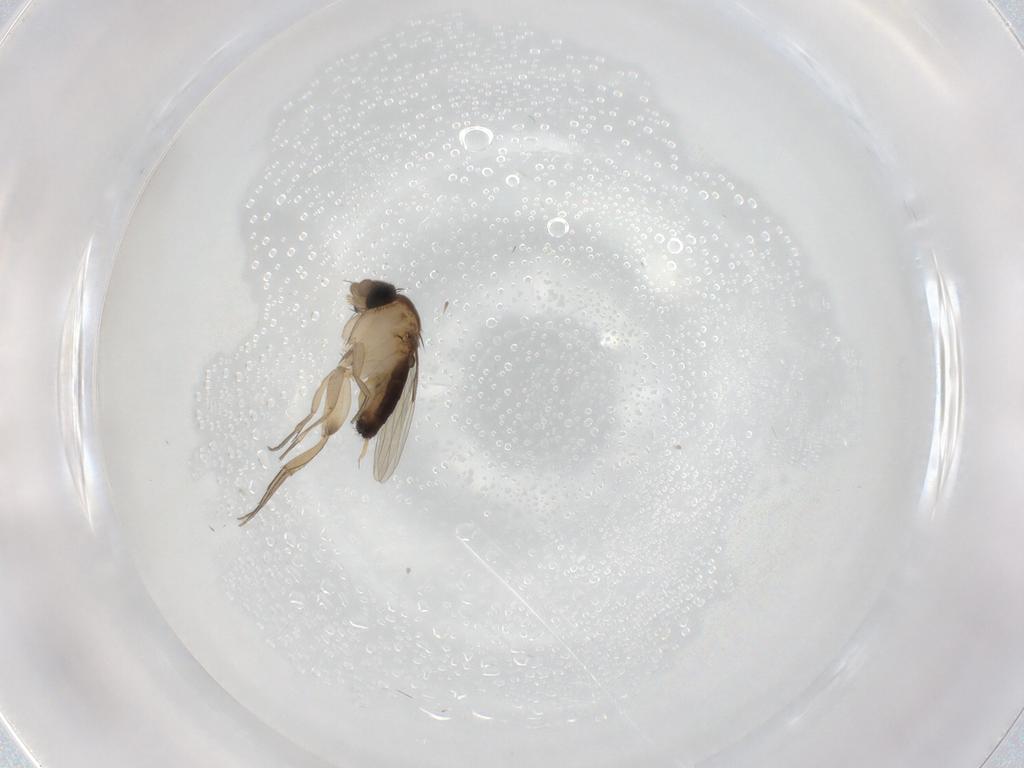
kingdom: Animalia
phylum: Arthropoda
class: Insecta
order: Diptera
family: Phoridae
